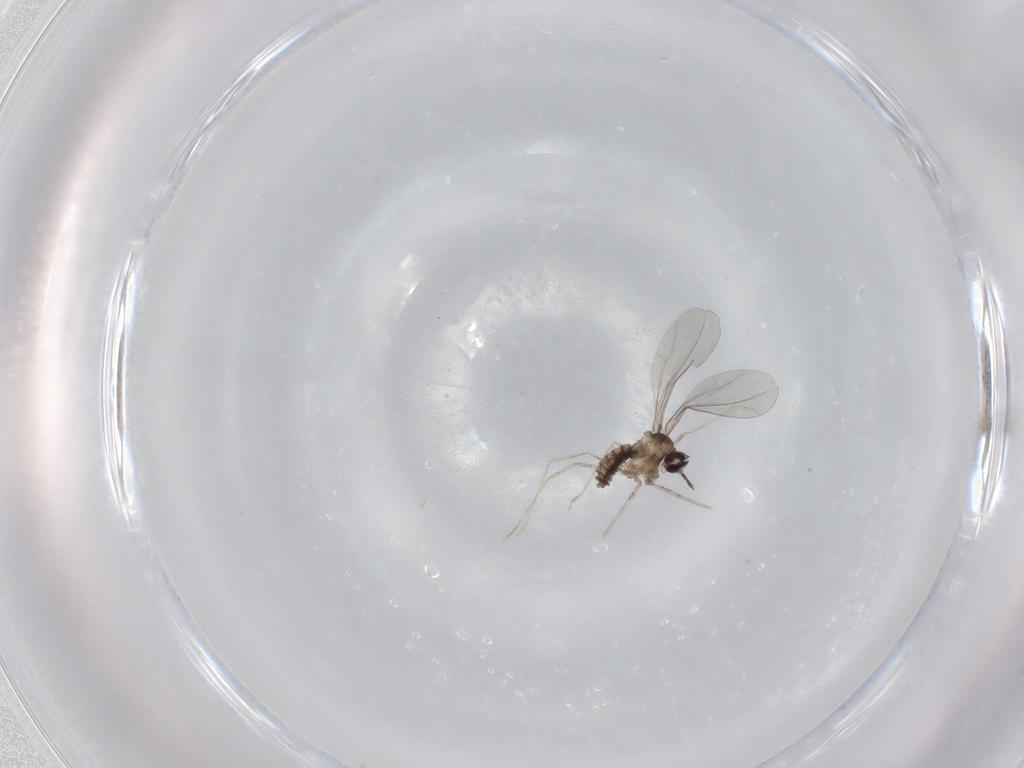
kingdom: Animalia
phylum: Arthropoda
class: Insecta
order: Diptera
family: Cecidomyiidae
